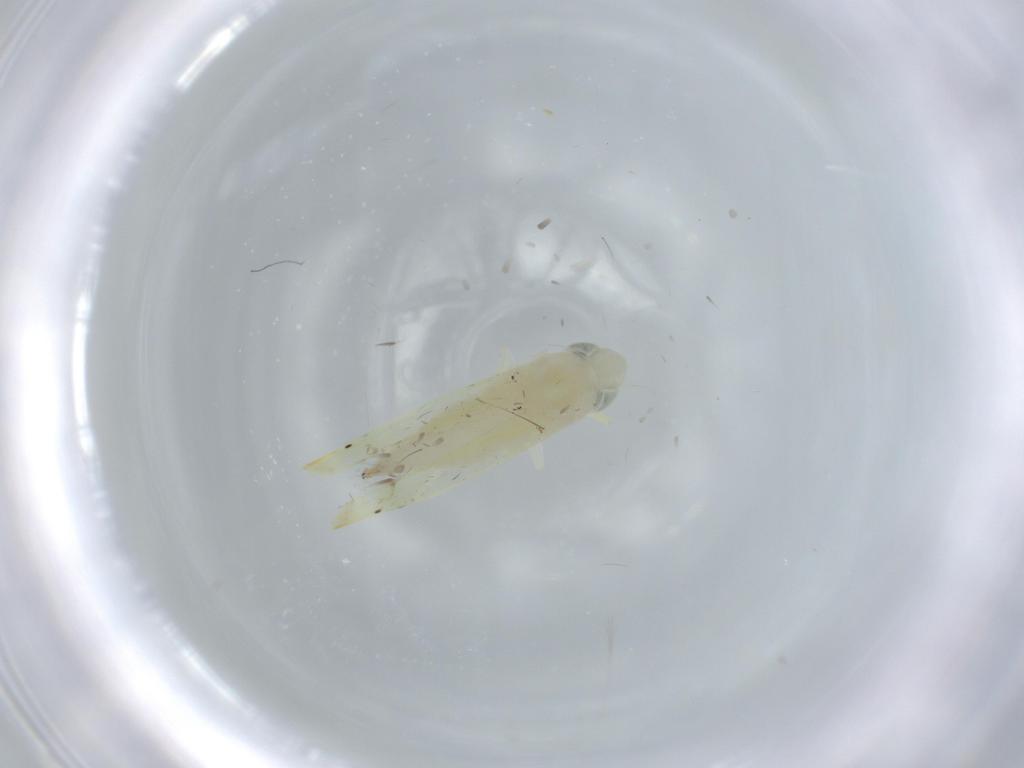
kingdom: Animalia
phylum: Arthropoda
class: Insecta
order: Hemiptera
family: Cicadellidae
